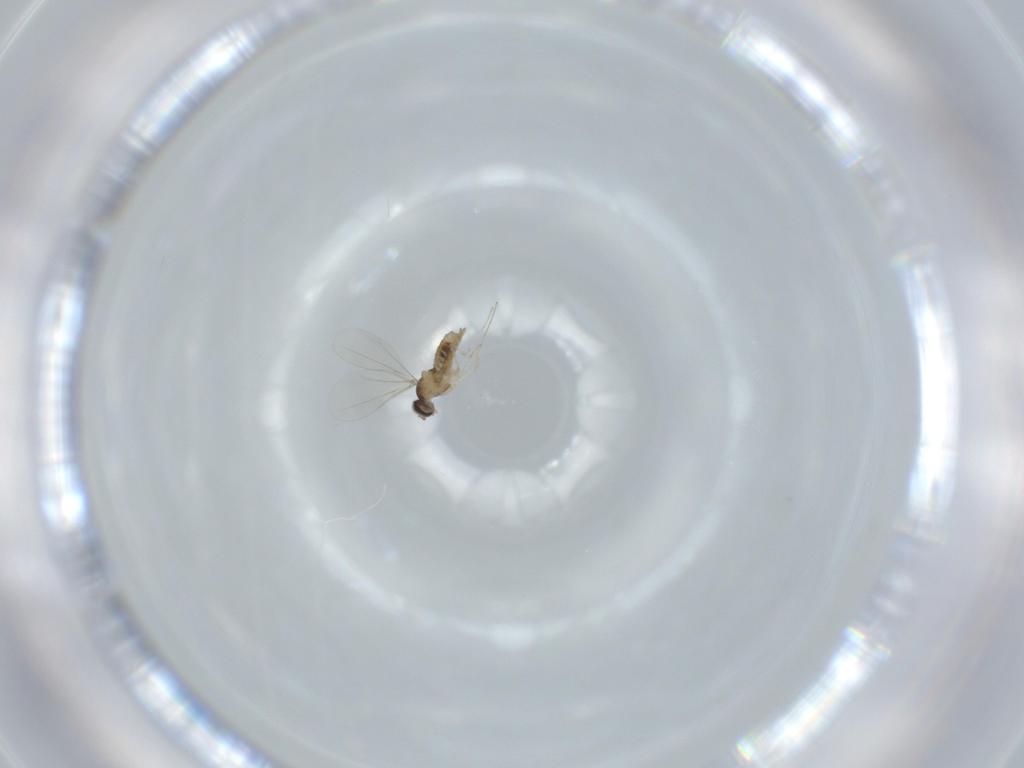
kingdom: Animalia
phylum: Arthropoda
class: Insecta
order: Diptera
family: Cecidomyiidae
